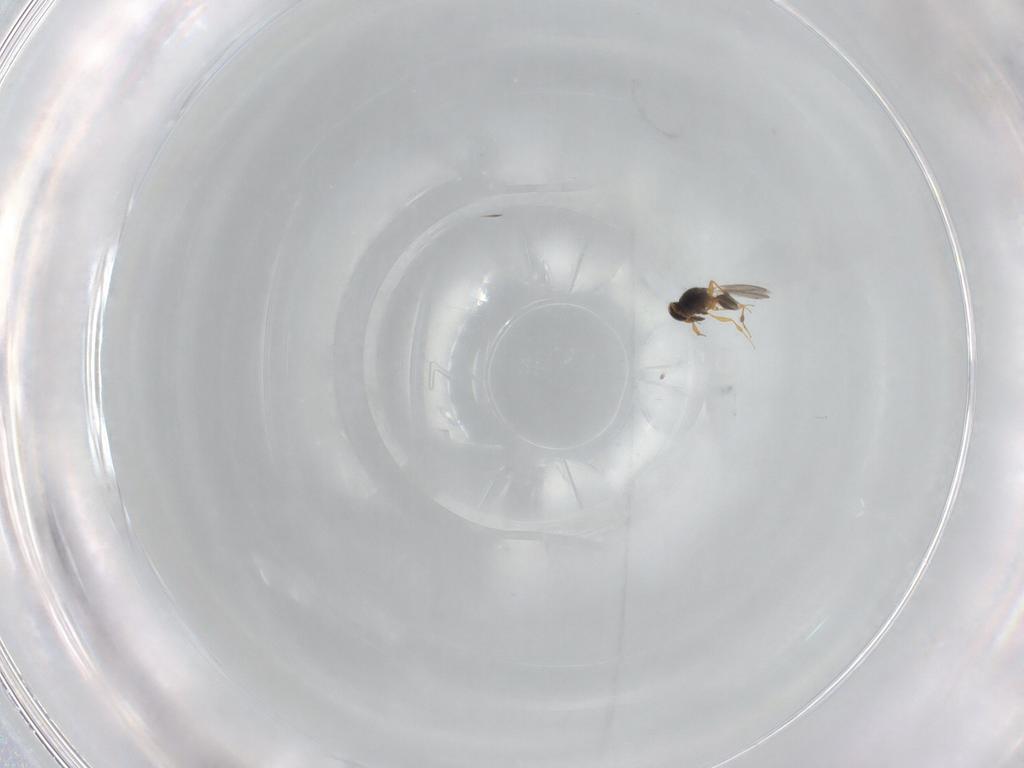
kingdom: Animalia
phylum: Arthropoda
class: Insecta
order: Hymenoptera
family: Platygastridae
